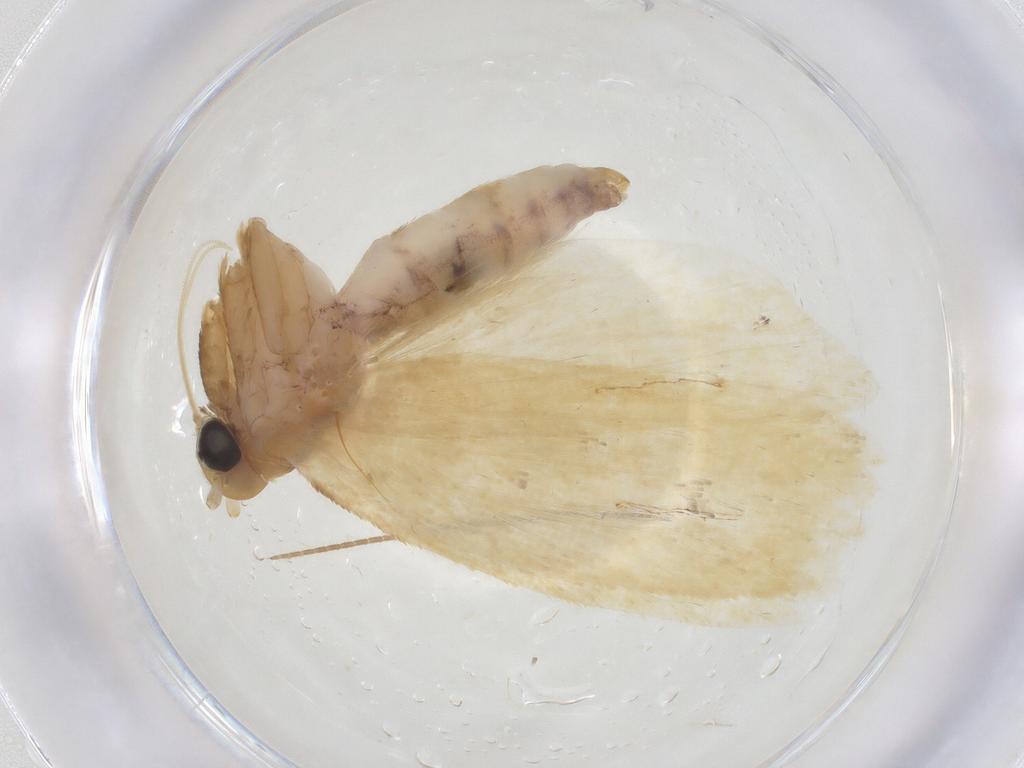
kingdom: Animalia
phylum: Arthropoda
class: Insecta
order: Lepidoptera
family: Depressariidae
